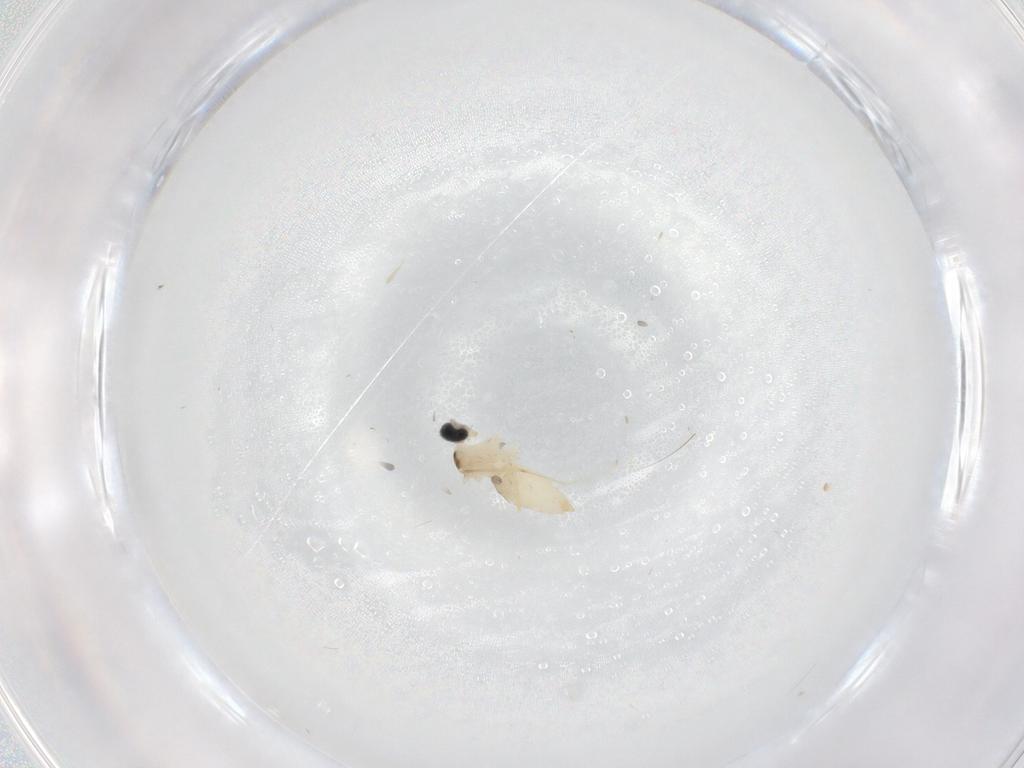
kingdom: Animalia
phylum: Arthropoda
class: Insecta
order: Diptera
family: Cecidomyiidae
